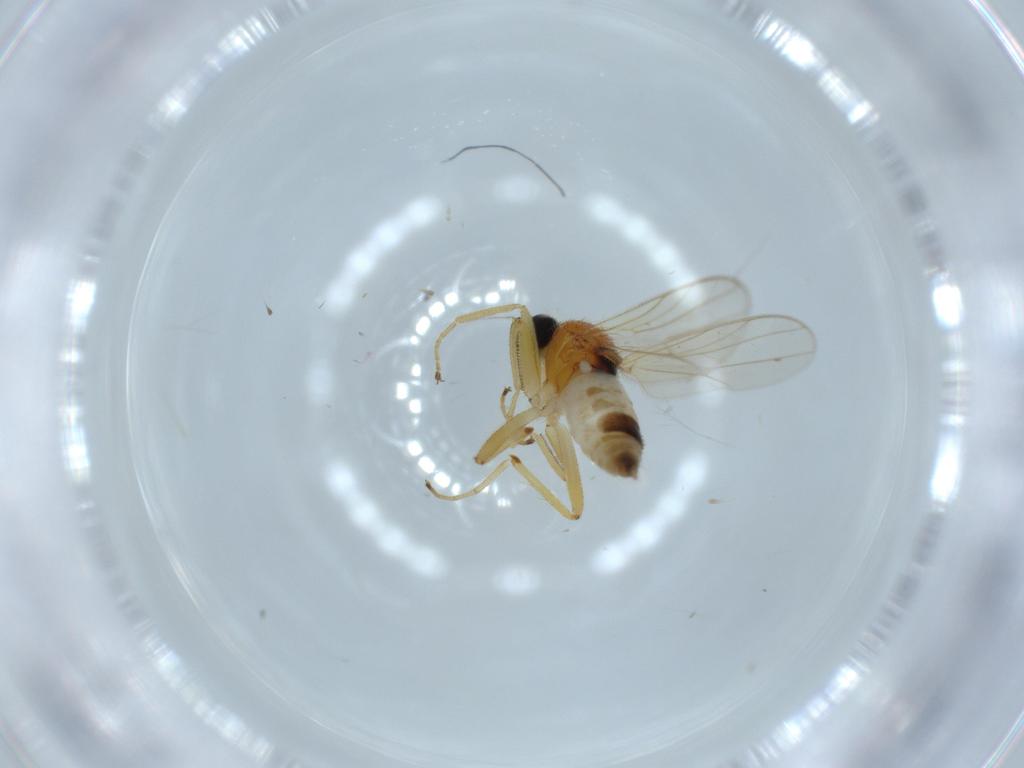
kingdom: Animalia
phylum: Arthropoda
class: Insecta
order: Diptera
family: Hybotidae
